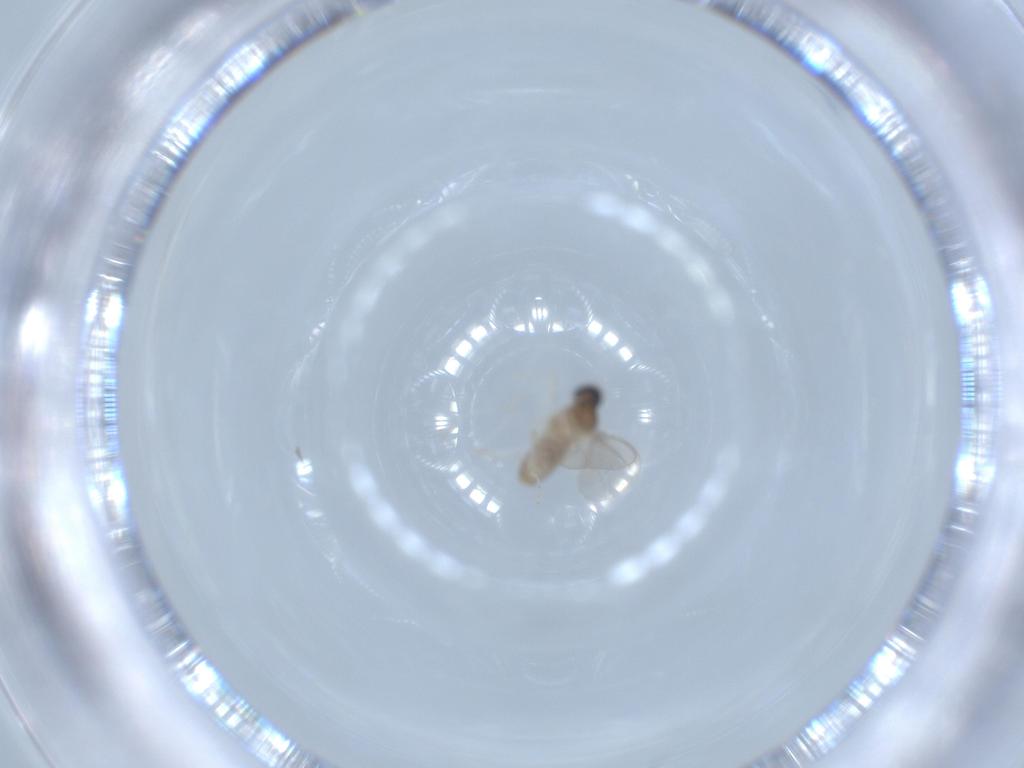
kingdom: Animalia
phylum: Arthropoda
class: Insecta
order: Diptera
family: Cecidomyiidae
